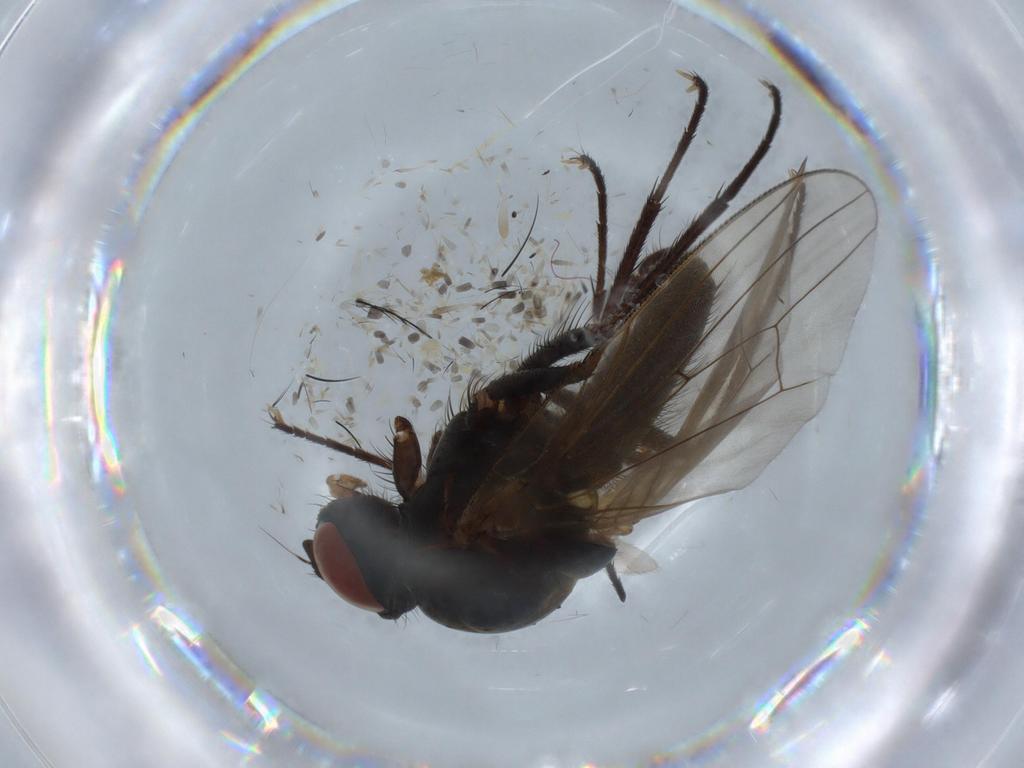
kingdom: Animalia
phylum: Arthropoda
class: Insecta
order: Diptera
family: Anthomyiidae
